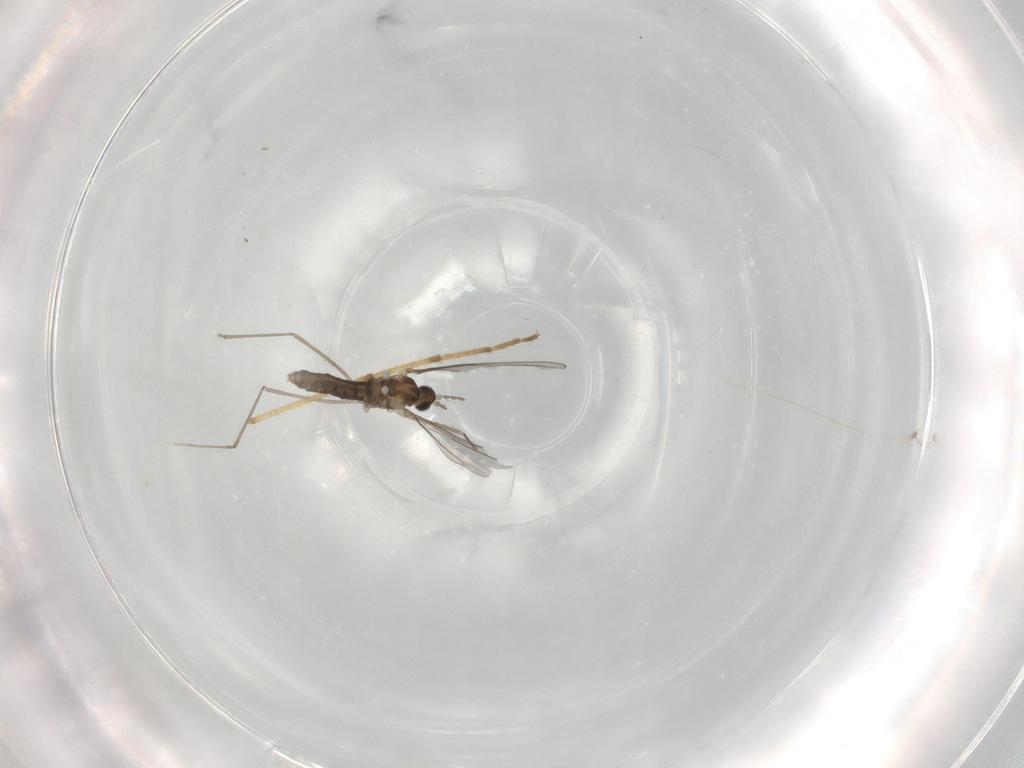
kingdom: Animalia
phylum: Arthropoda
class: Insecta
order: Diptera
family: Cecidomyiidae
